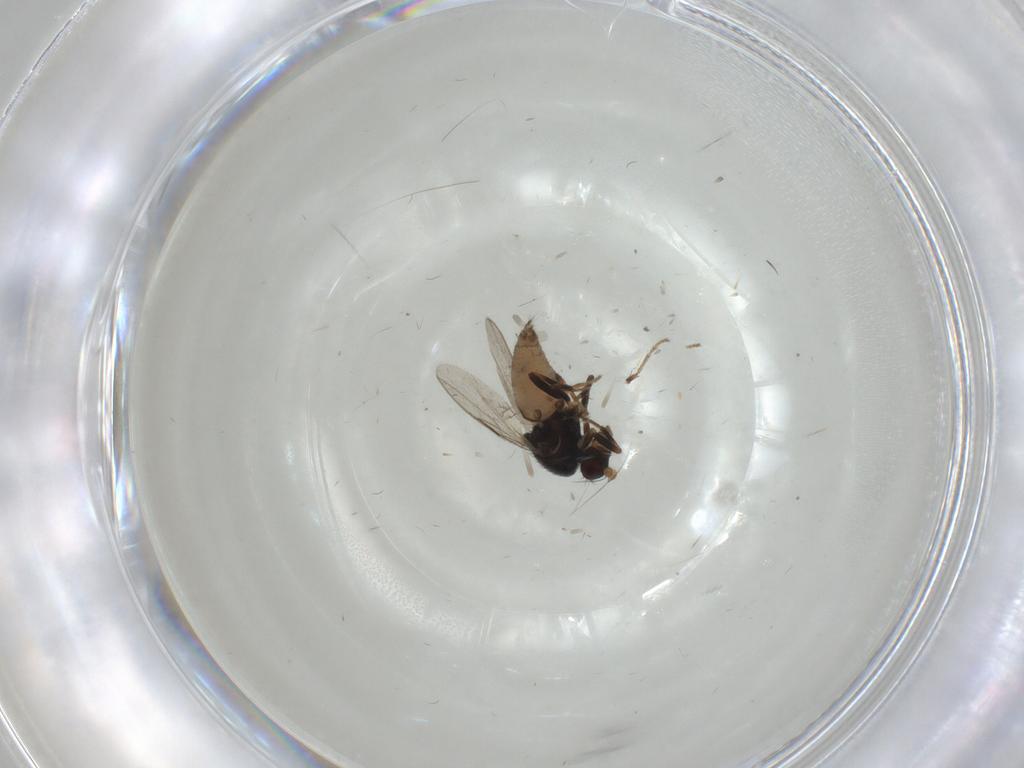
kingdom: Animalia
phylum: Arthropoda
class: Insecta
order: Diptera
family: Sphaeroceridae
